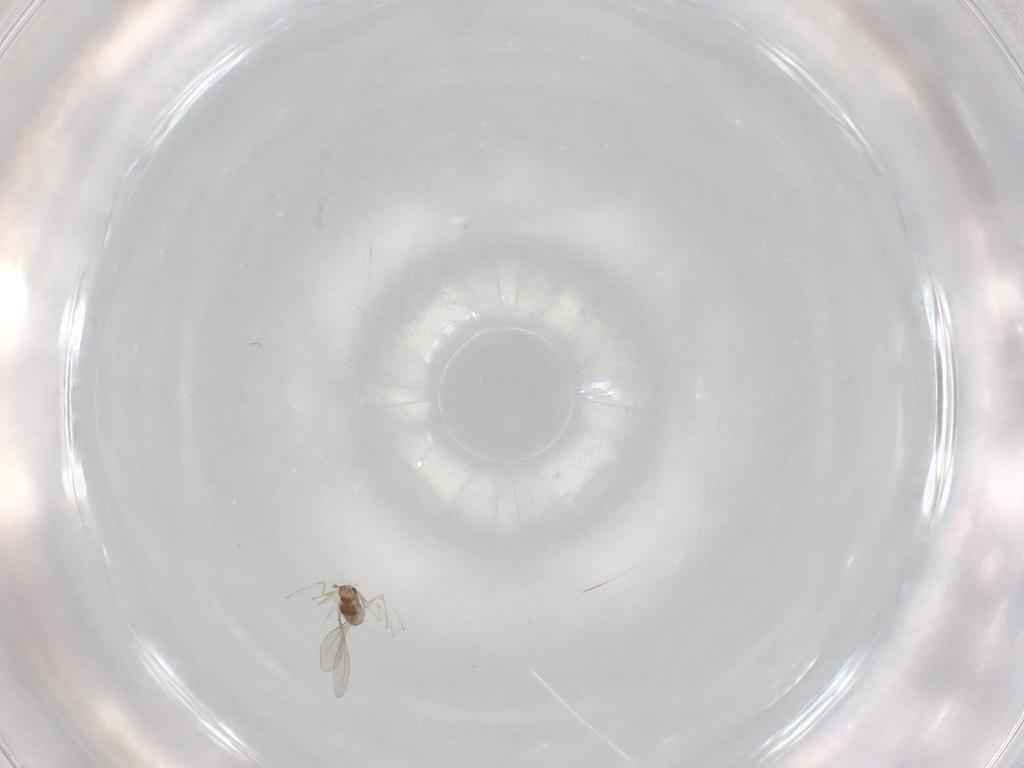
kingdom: Animalia
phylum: Arthropoda
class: Insecta
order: Diptera
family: Cecidomyiidae
